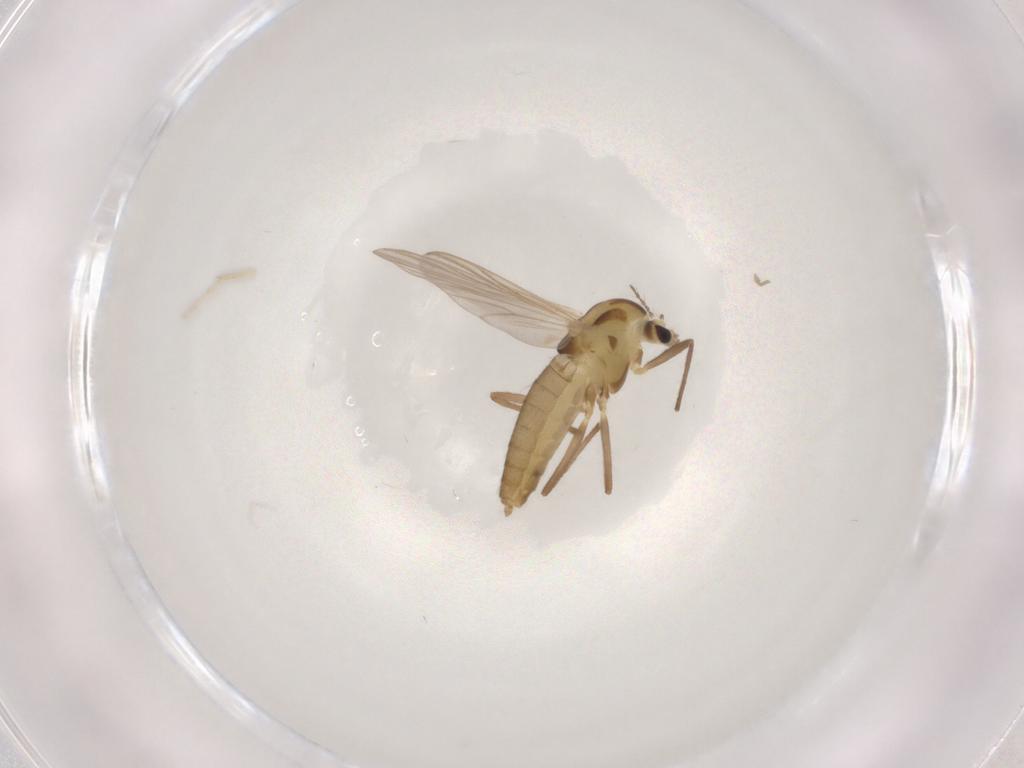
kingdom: Animalia
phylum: Arthropoda
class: Insecta
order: Diptera
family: Chironomidae
